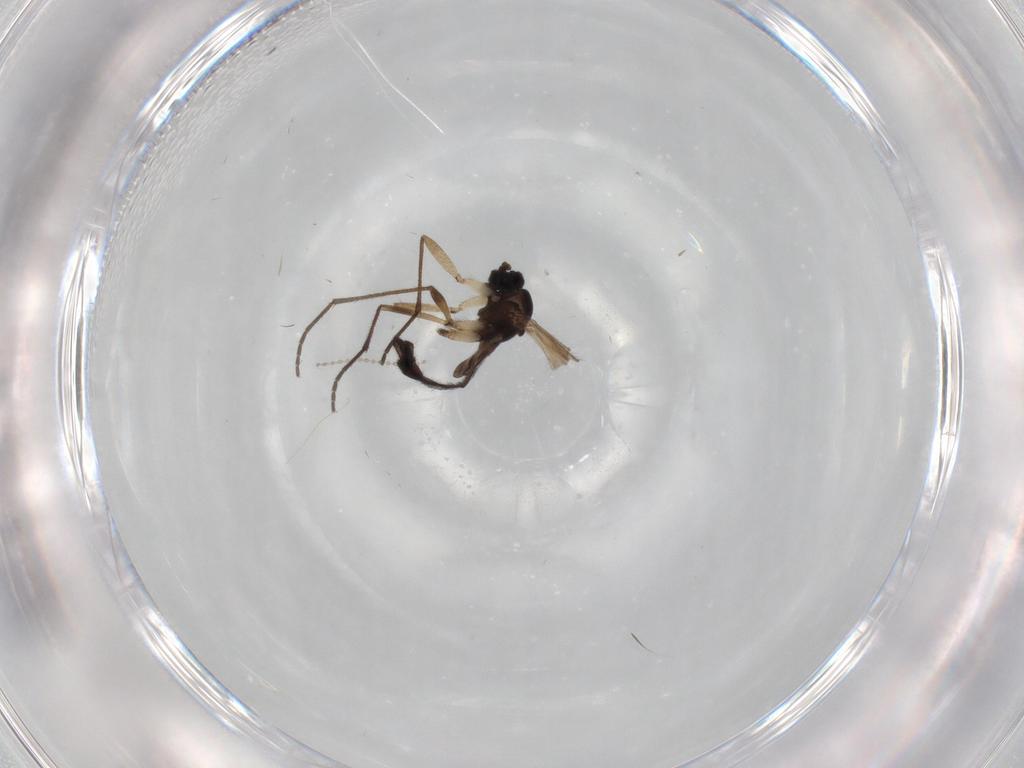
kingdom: Animalia
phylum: Arthropoda
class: Insecta
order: Diptera
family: Sciaridae
